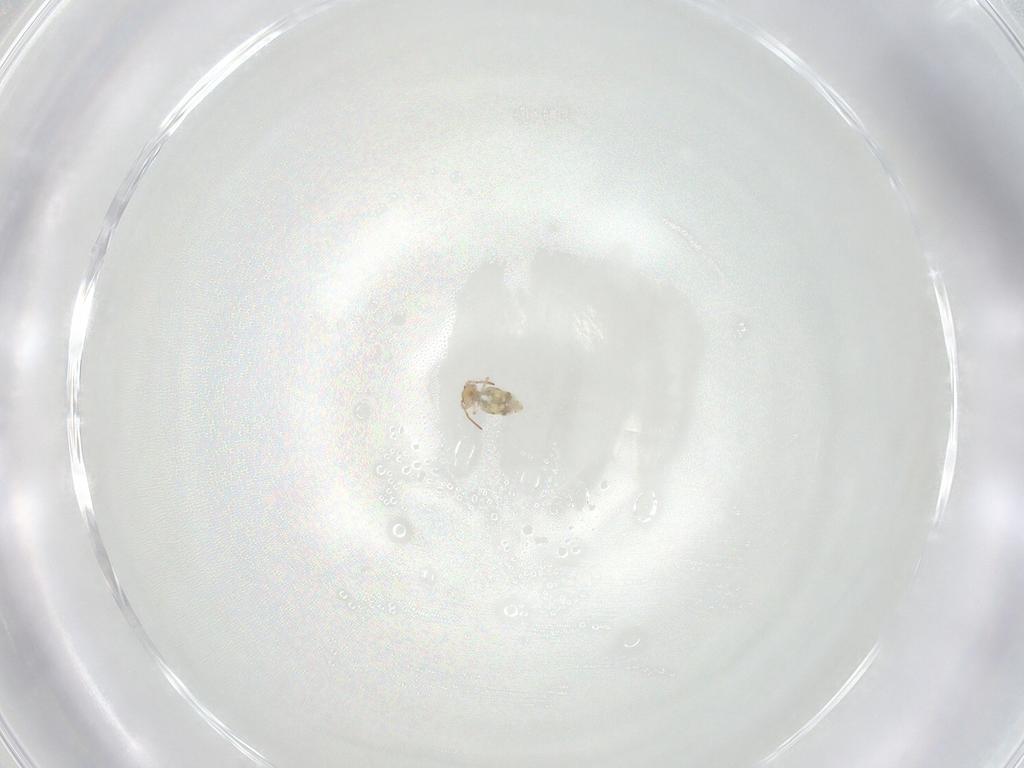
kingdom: Animalia
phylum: Arthropoda
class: Collembola
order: Symphypleona
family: Bourletiellidae
